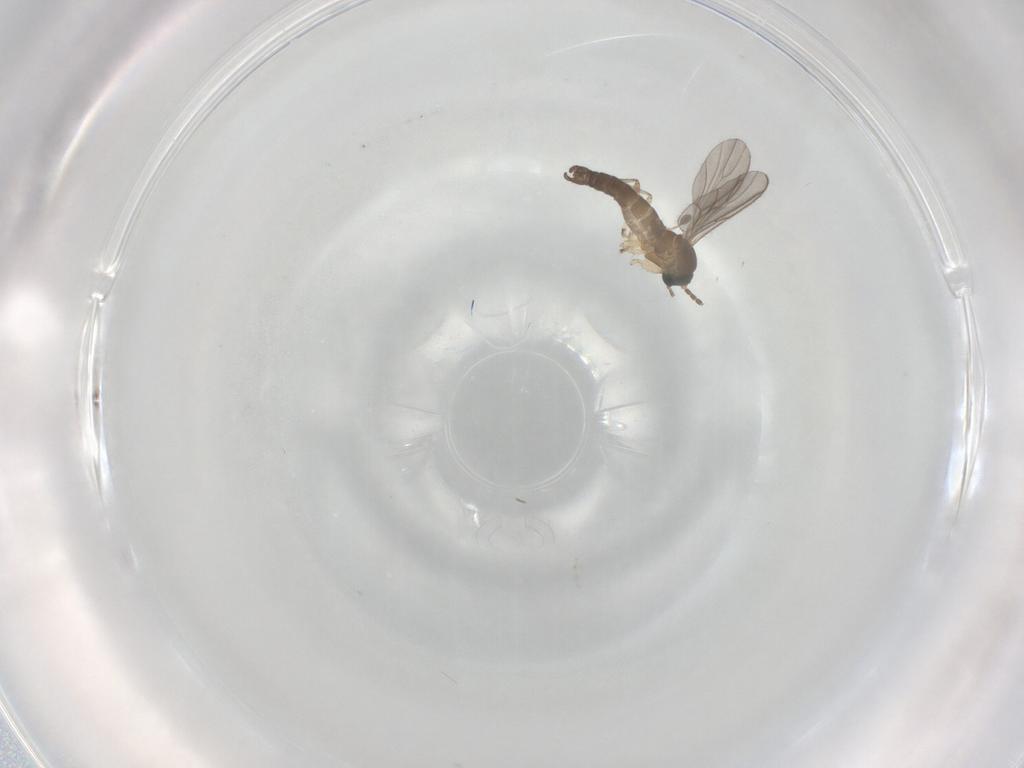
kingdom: Animalia
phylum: Arthropoda
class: Insecta
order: Diptera
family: Sciaridae
